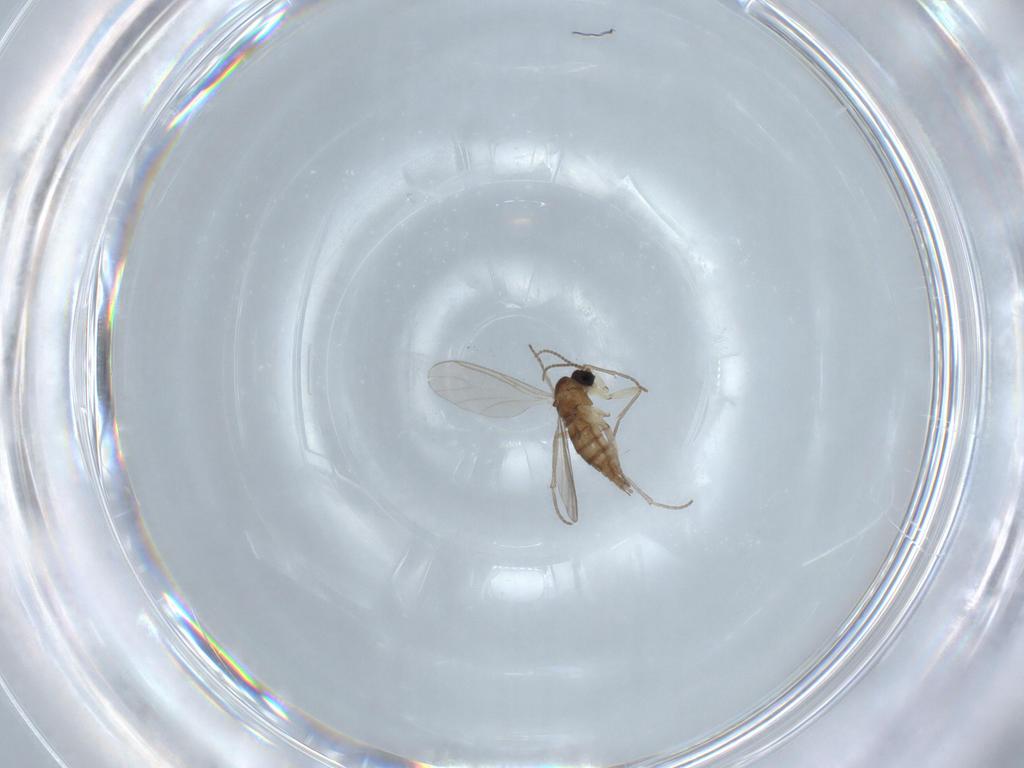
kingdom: Animalia
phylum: Arthropoda
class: Insecta
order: Diptera
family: Sciaridae
